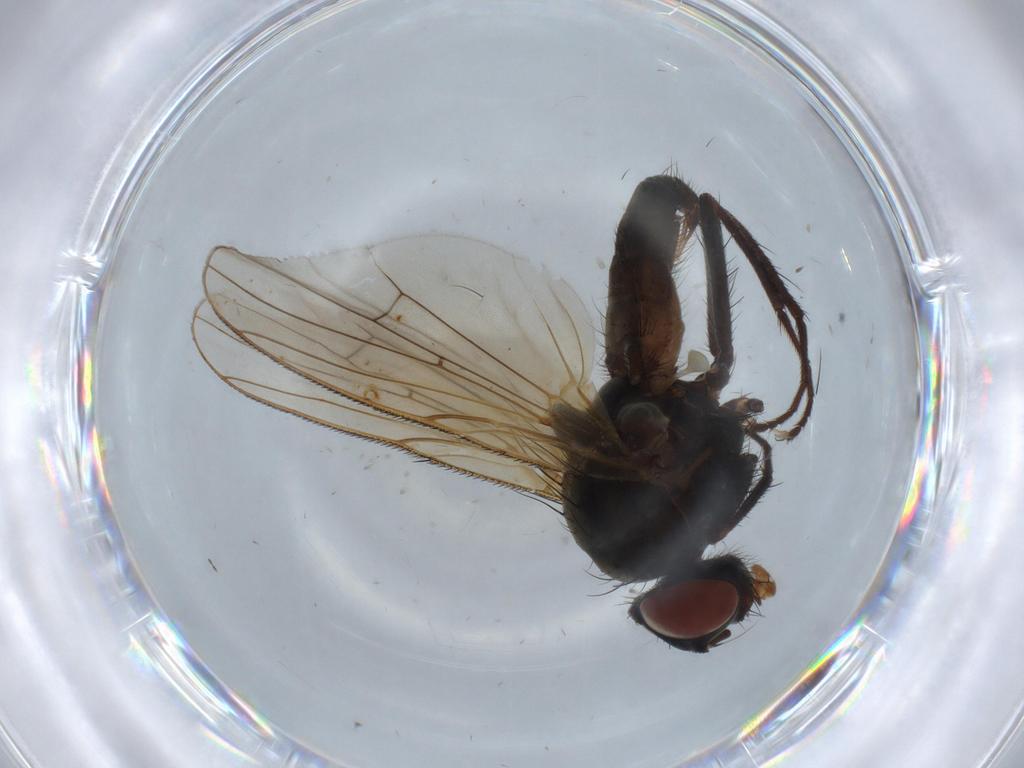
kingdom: Animalia
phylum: Arthropoda
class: Insecta
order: Diptera
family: Anthomyiidae
